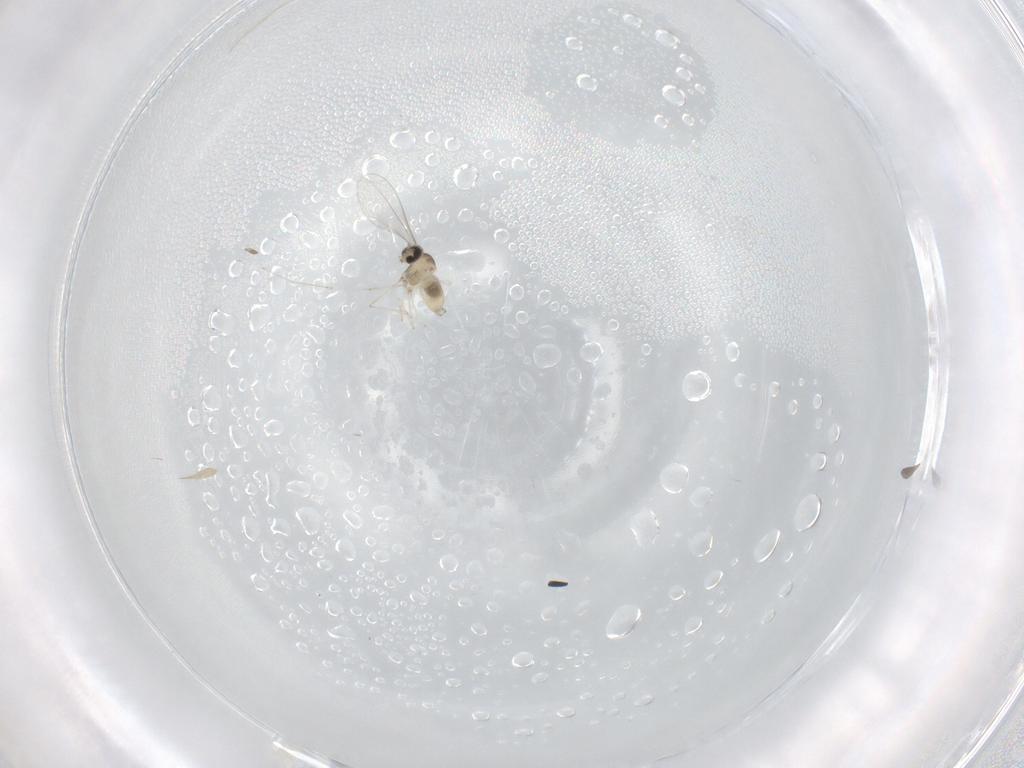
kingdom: Animalia
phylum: Arthropoda
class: Insecta
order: Diptera
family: Cecidomyiidae
